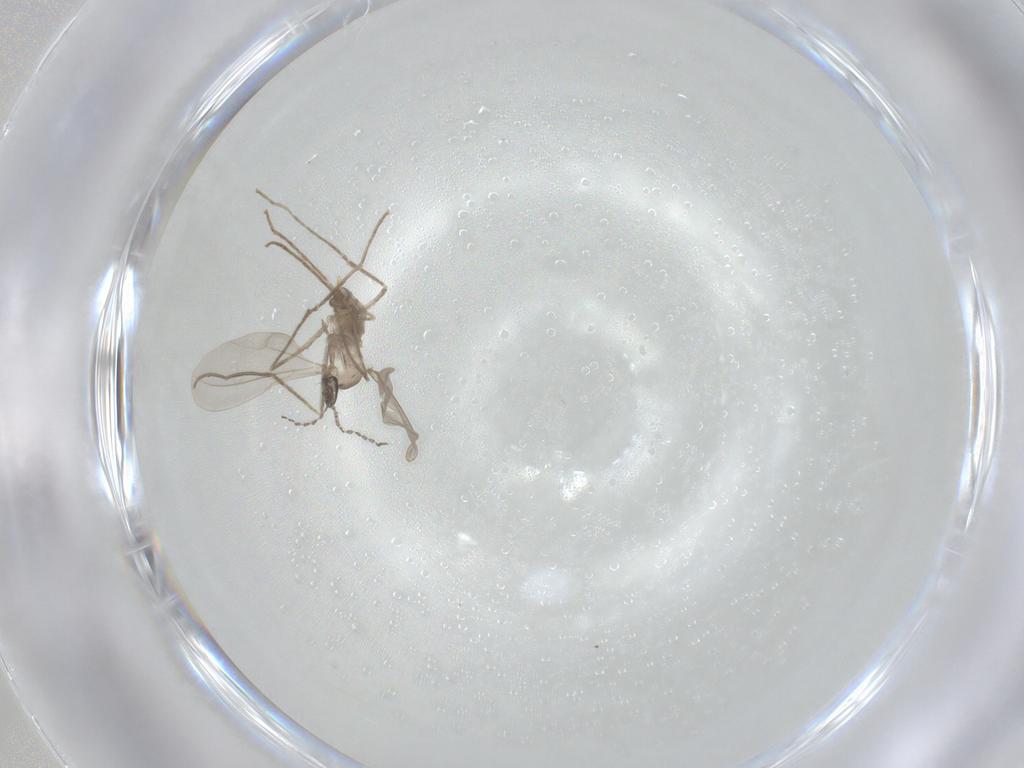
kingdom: Animalia
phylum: Arthropoda
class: Insecta
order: Diptera
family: Cecidomyiidae
